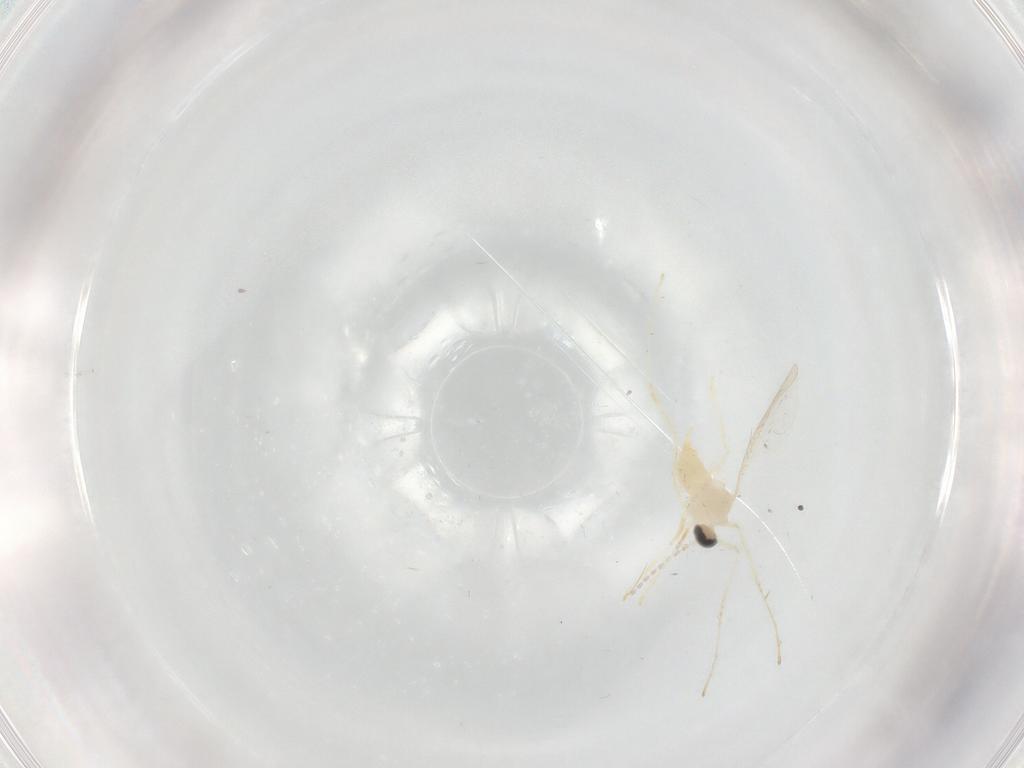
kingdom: Animalia
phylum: Arthropoda
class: Insecta
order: Diptera
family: Cecidomyiidae
